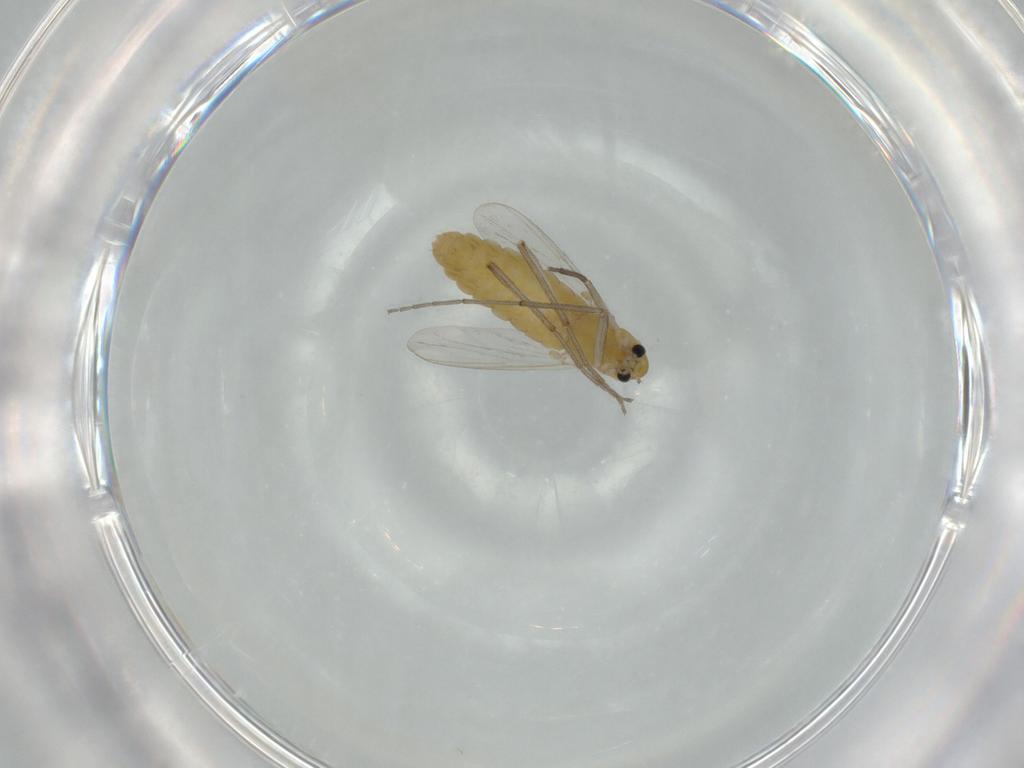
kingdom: Animalia
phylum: Arthropoda
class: Insecta
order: Diptera
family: Chironomidae
